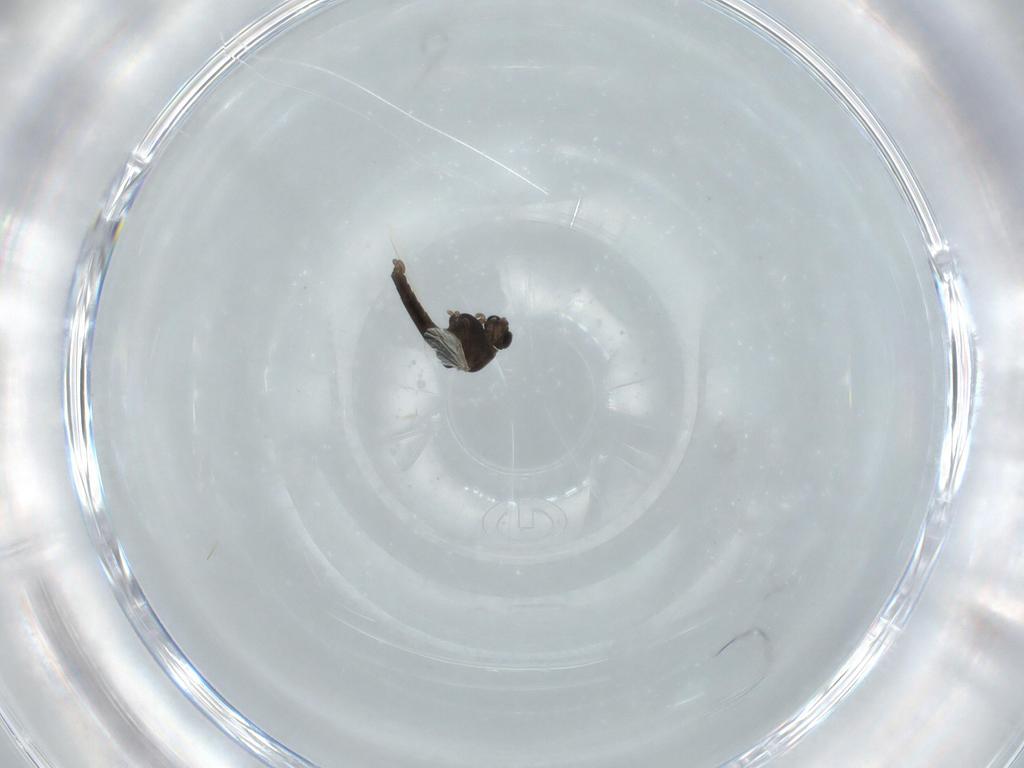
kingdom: Animalia
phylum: Arthropoda
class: Insecta
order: Diptera
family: Chironomidae
